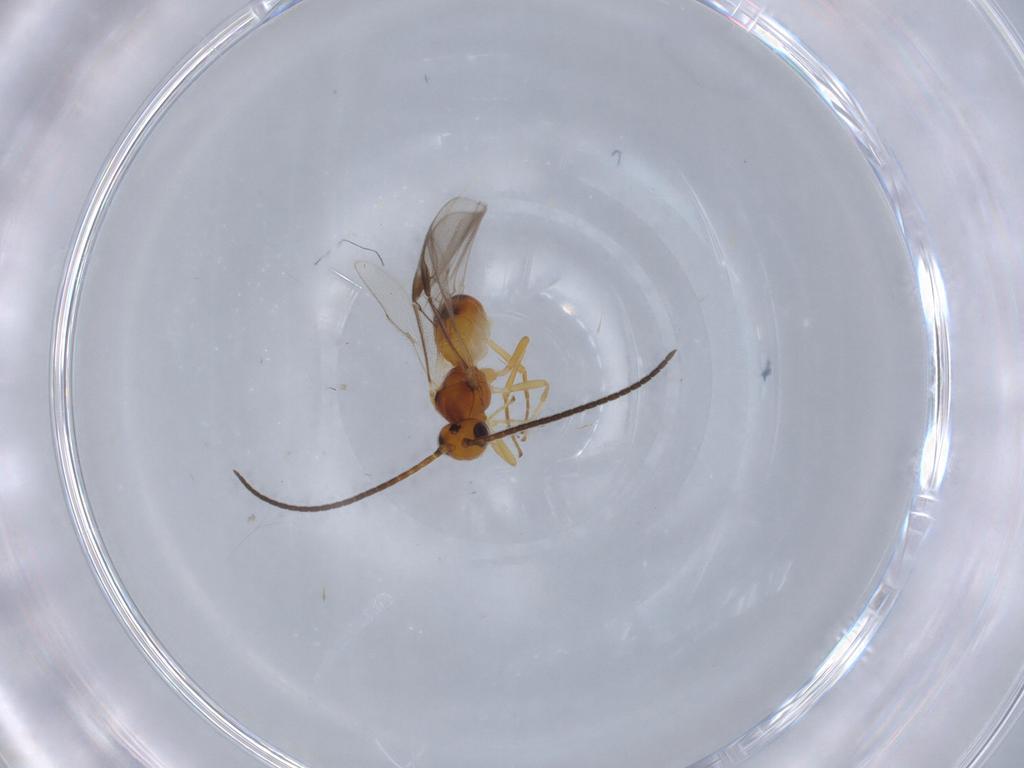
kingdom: Animalia
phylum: Arthropoda
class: Insecta
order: Hymenoptera
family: Braconidae
